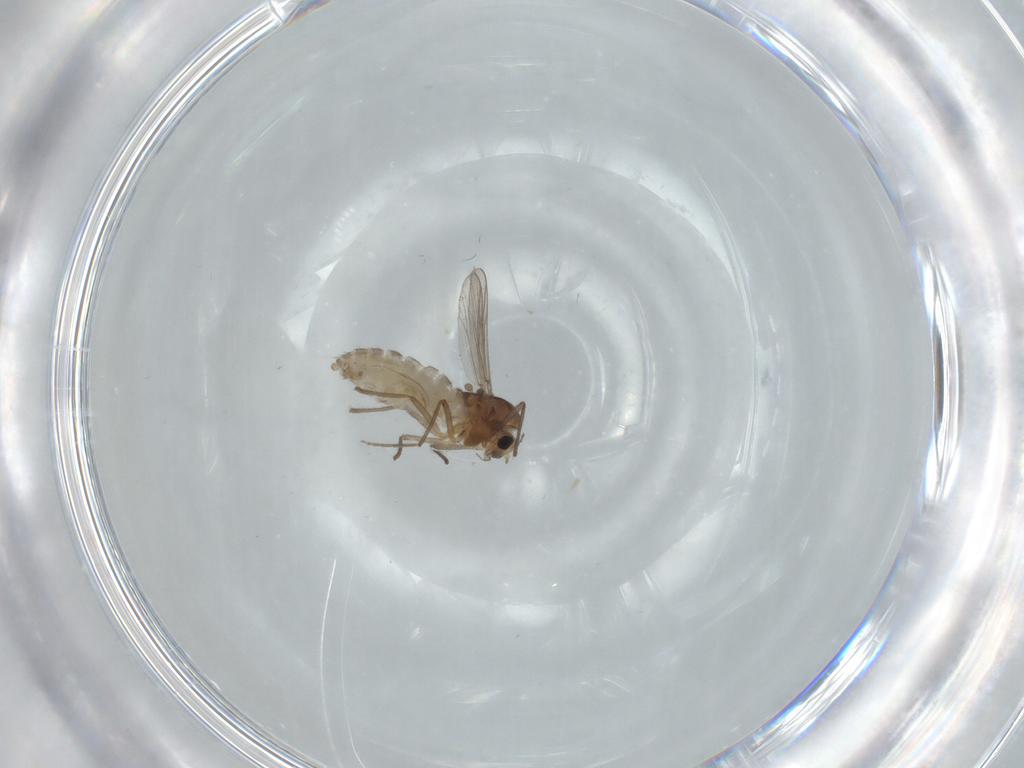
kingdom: Animalia
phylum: Arthropoda
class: Insecta
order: Diptera
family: Chironomidae
